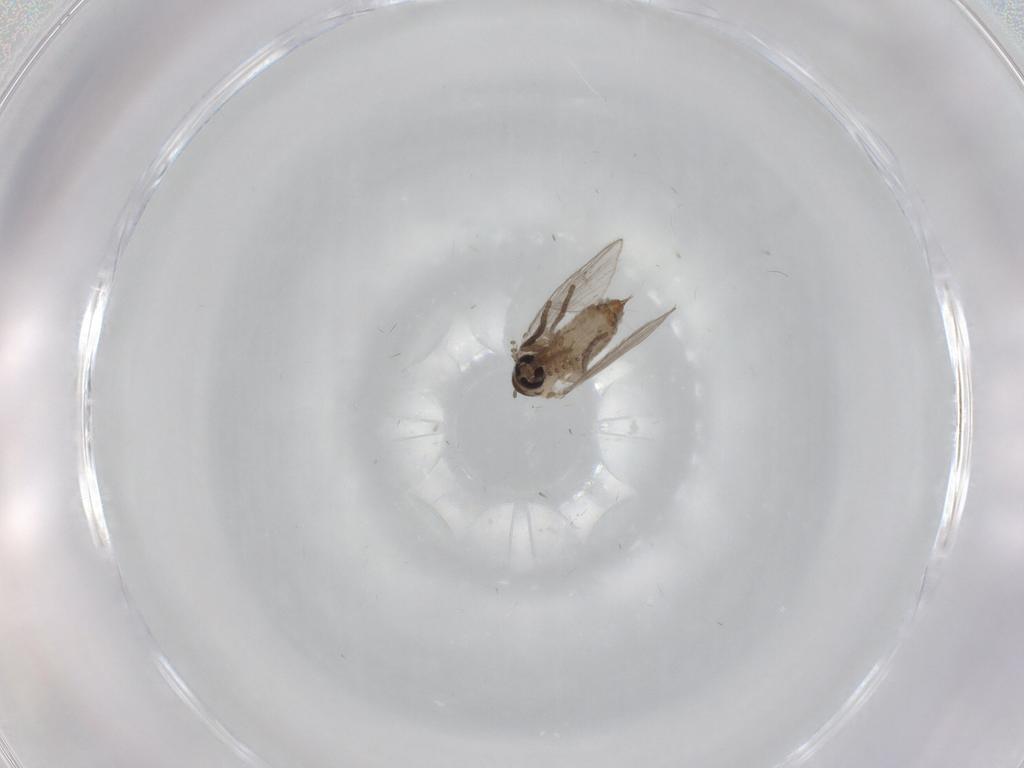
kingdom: Animalia
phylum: Arthropoda
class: Insecta
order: Diptera
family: Psychodidae
